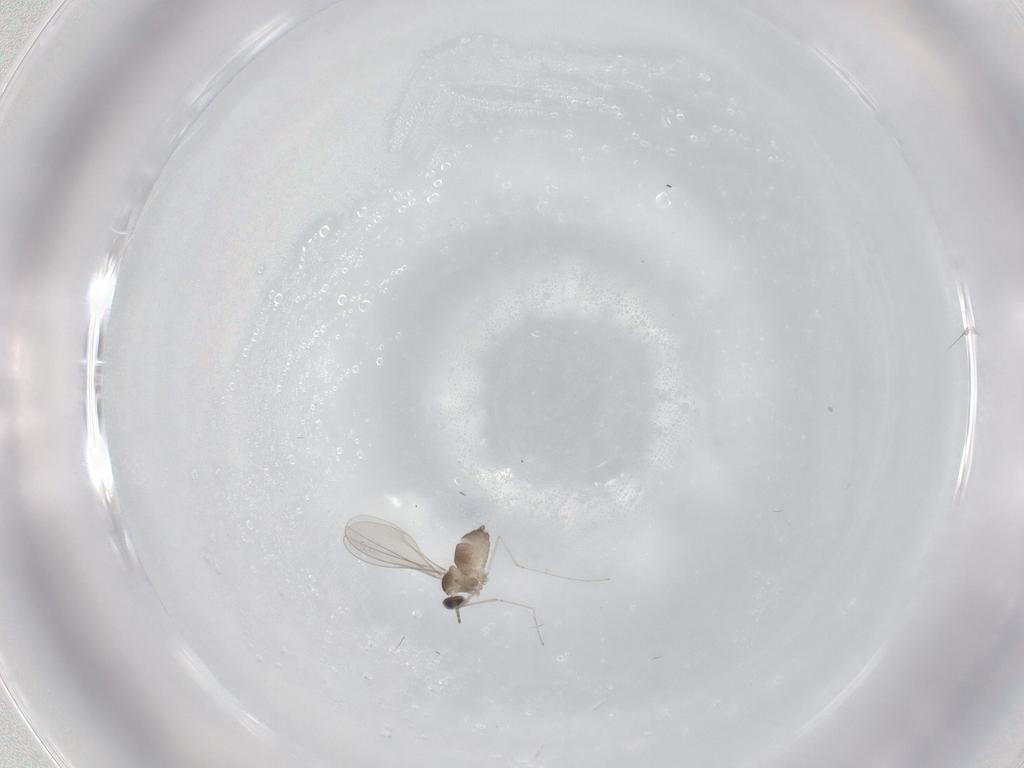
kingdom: Animalia
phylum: Arthropoda
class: Insecta
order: Diptera
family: Cecidomyiidae
